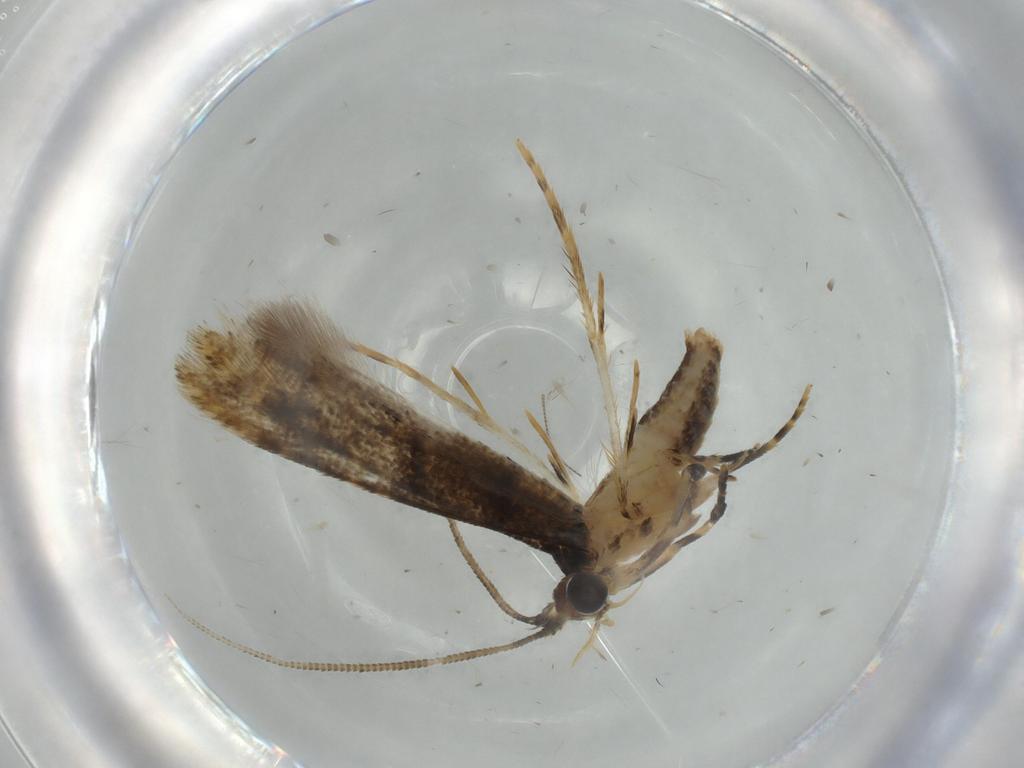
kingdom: Animalia
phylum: Arthropoda
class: Insecta
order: Lepidoptera
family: Tineidae
